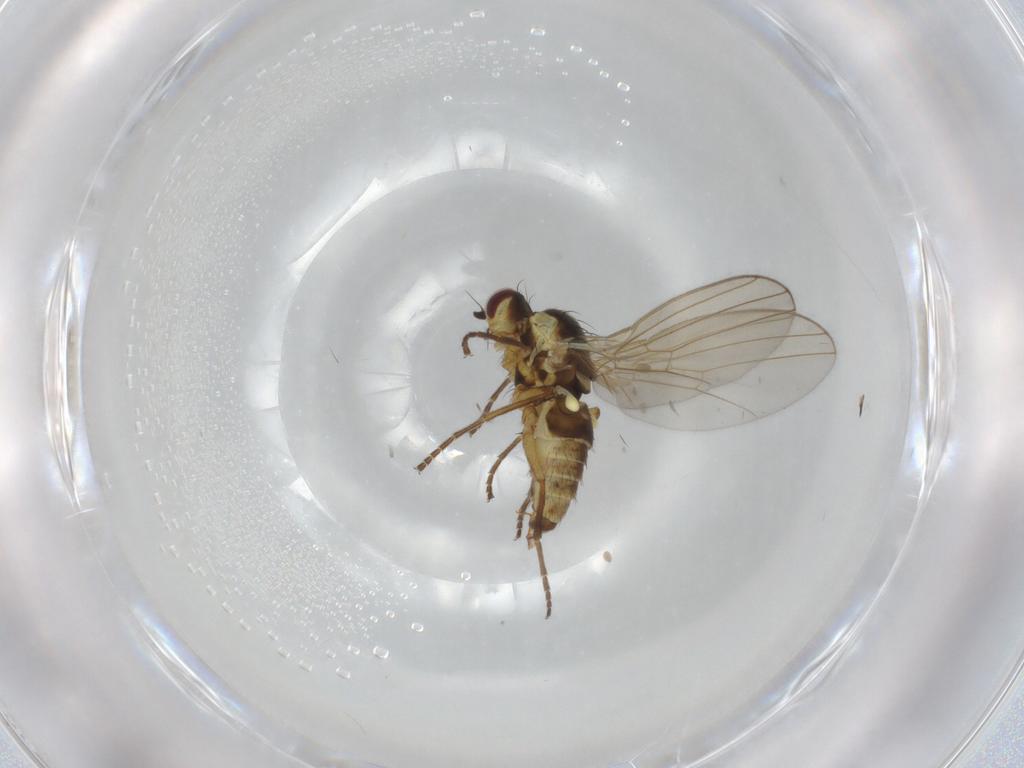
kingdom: Animalia
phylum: Arthropoda
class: Insecta
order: Diptera
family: Agromyzidae
